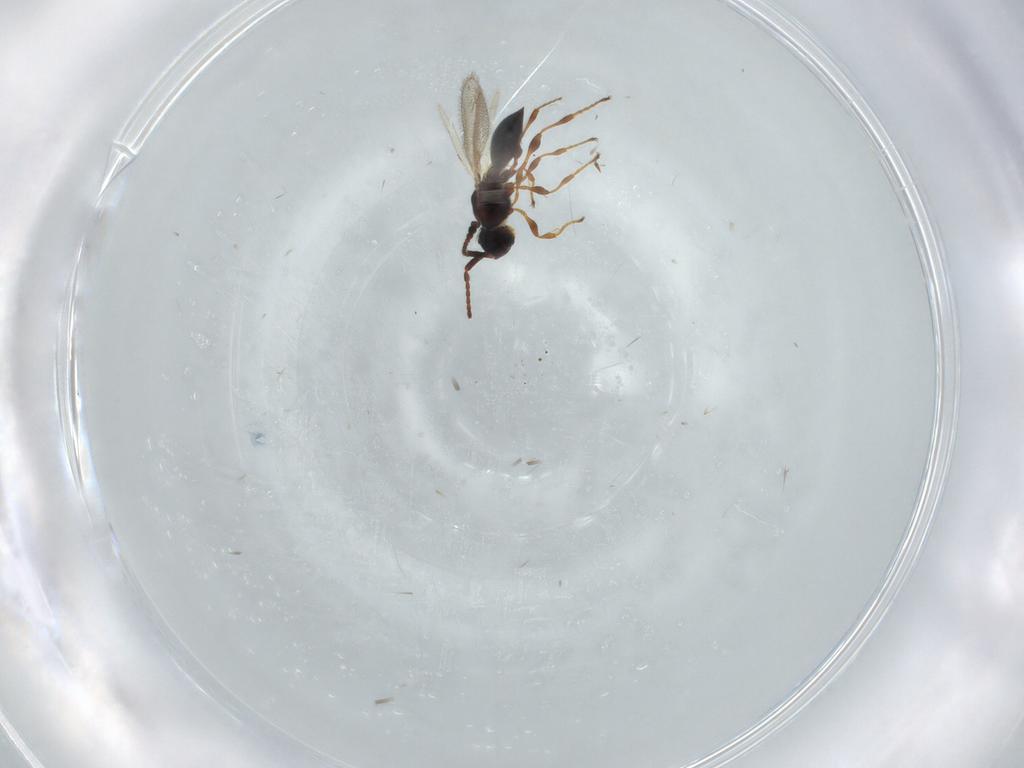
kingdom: Animalia
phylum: Arthropoda
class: Insecta
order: Hymenoptera
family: Diapriidae
